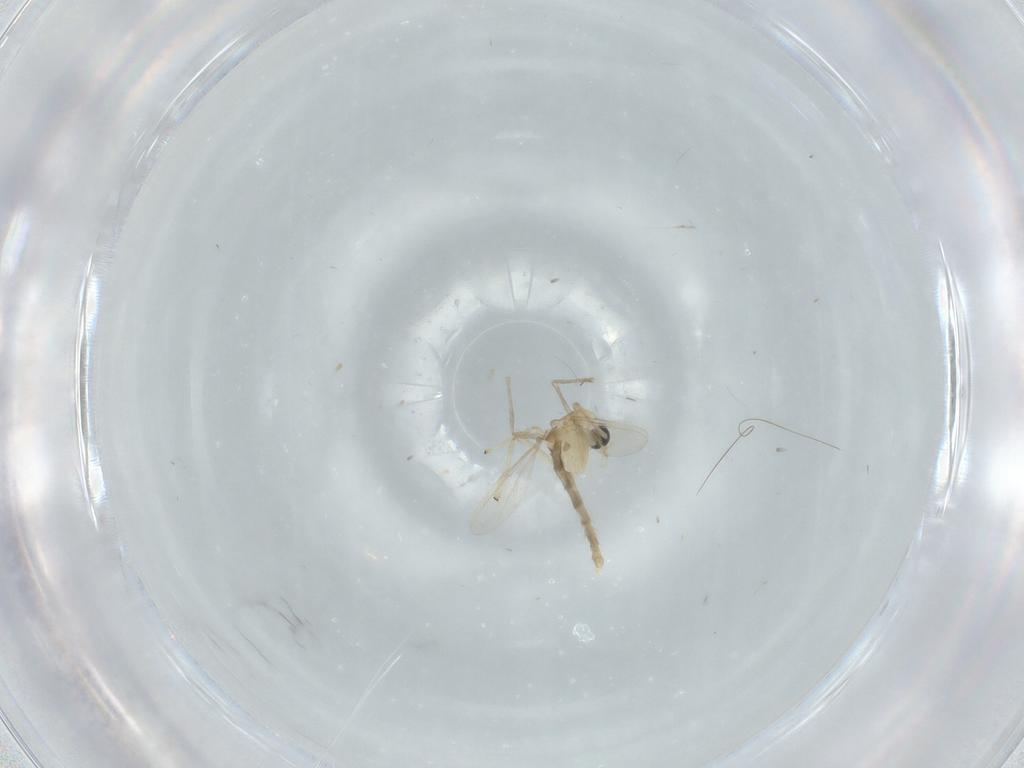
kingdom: Animalia
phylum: Arthropoda
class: Insecta
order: Diptera
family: Chironomidae
